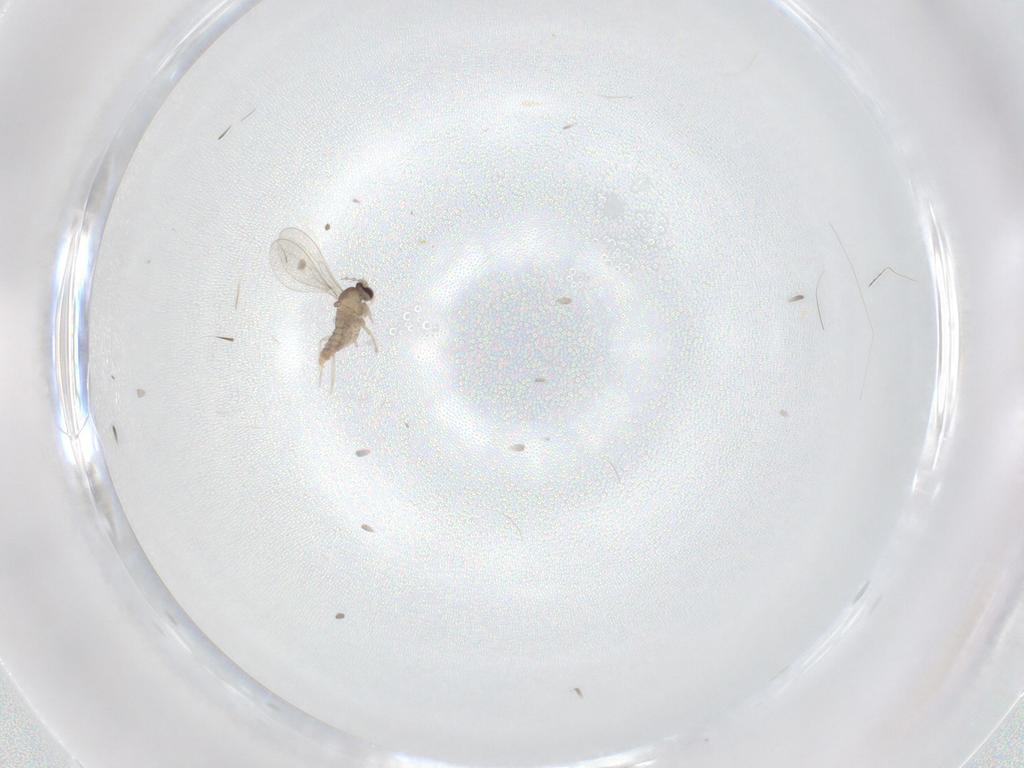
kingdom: Animalia
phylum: Arthropoda
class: Insecta
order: Diptera
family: Cecidomyiidae
